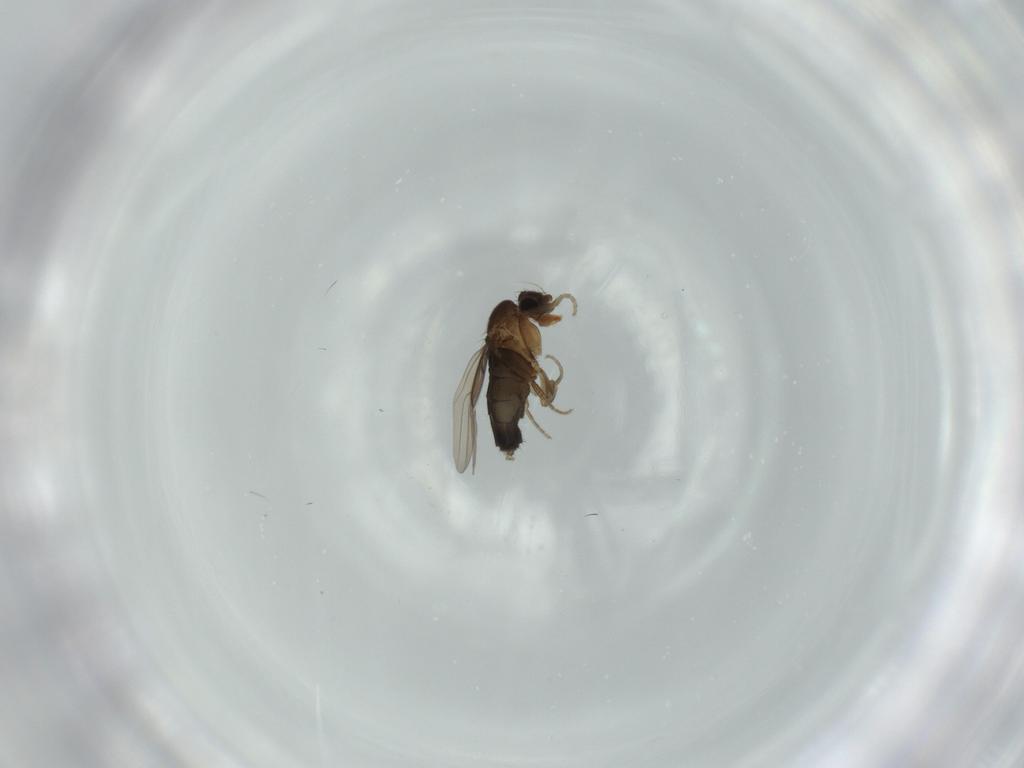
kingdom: Animalia
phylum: Arthropoda
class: Insecta
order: Diptera
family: Phoridae
